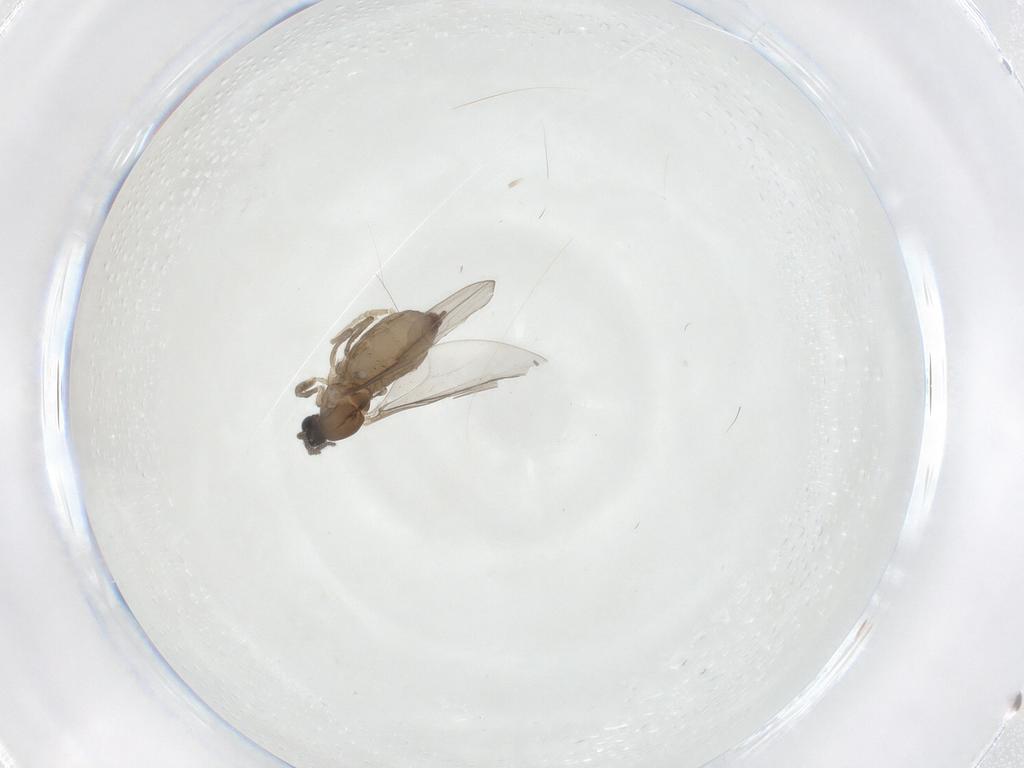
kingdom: Animalia
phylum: Arthropoda
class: Insecta
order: Diptera
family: Cecidomyiidae
